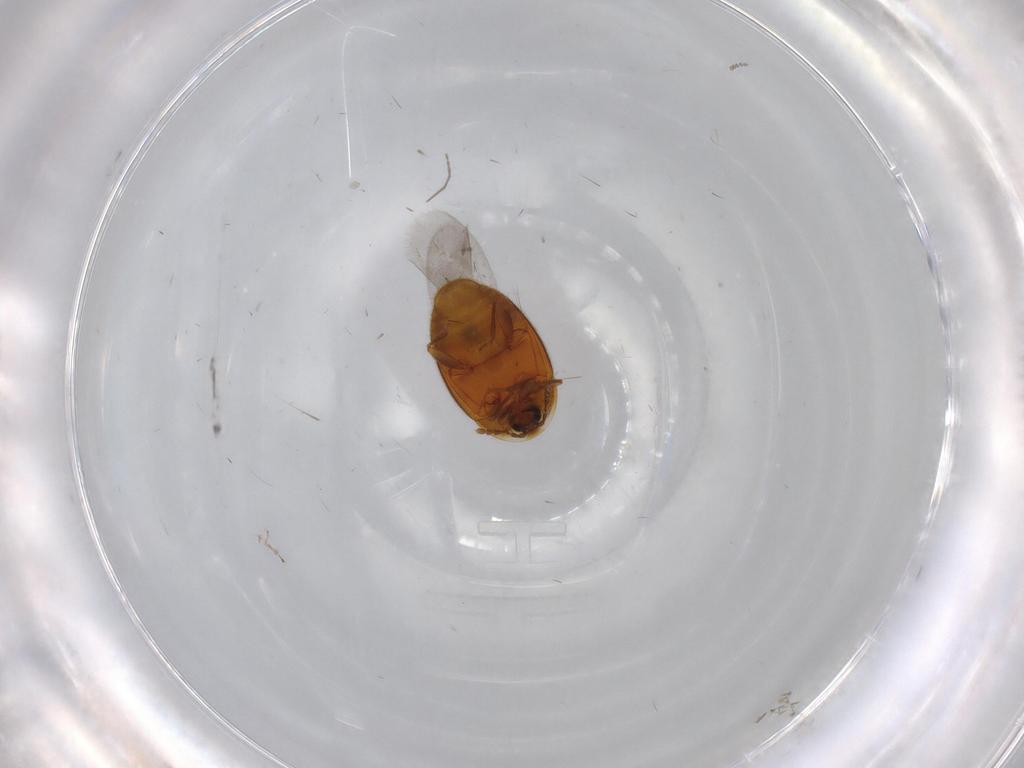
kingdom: Animalia
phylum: Arthropoda
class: Insecta
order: Coleoptera
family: Corylophidae
